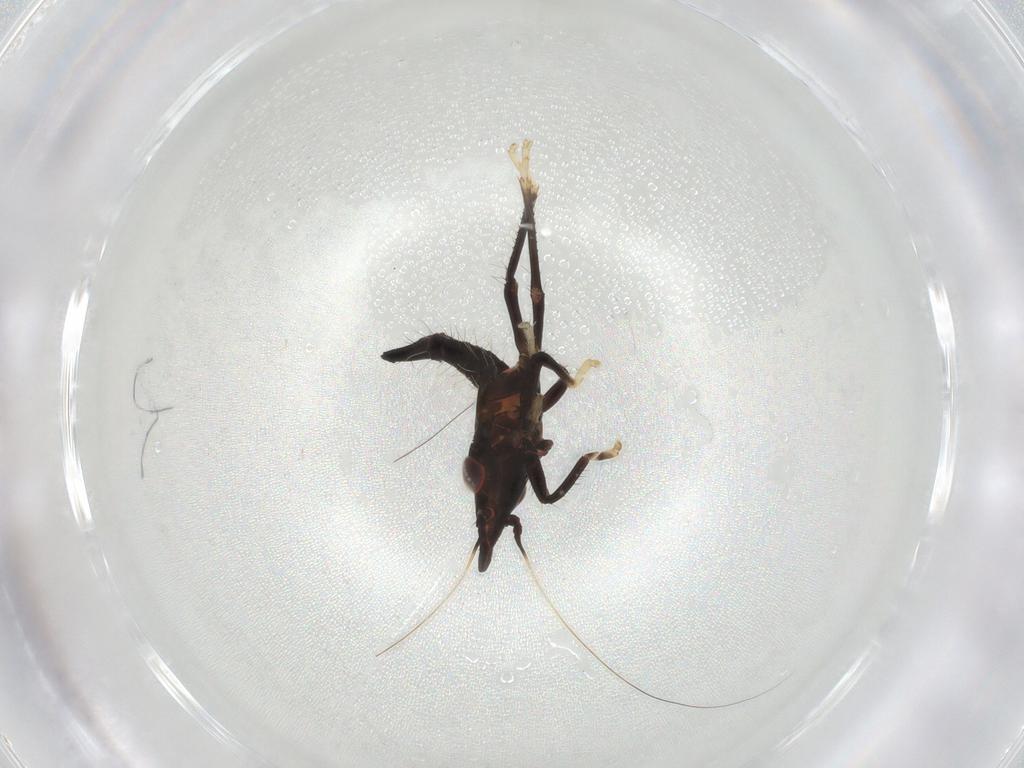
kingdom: Animalia
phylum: Arthropoda
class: Insecta
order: Hemiptera
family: Cicadellidae
